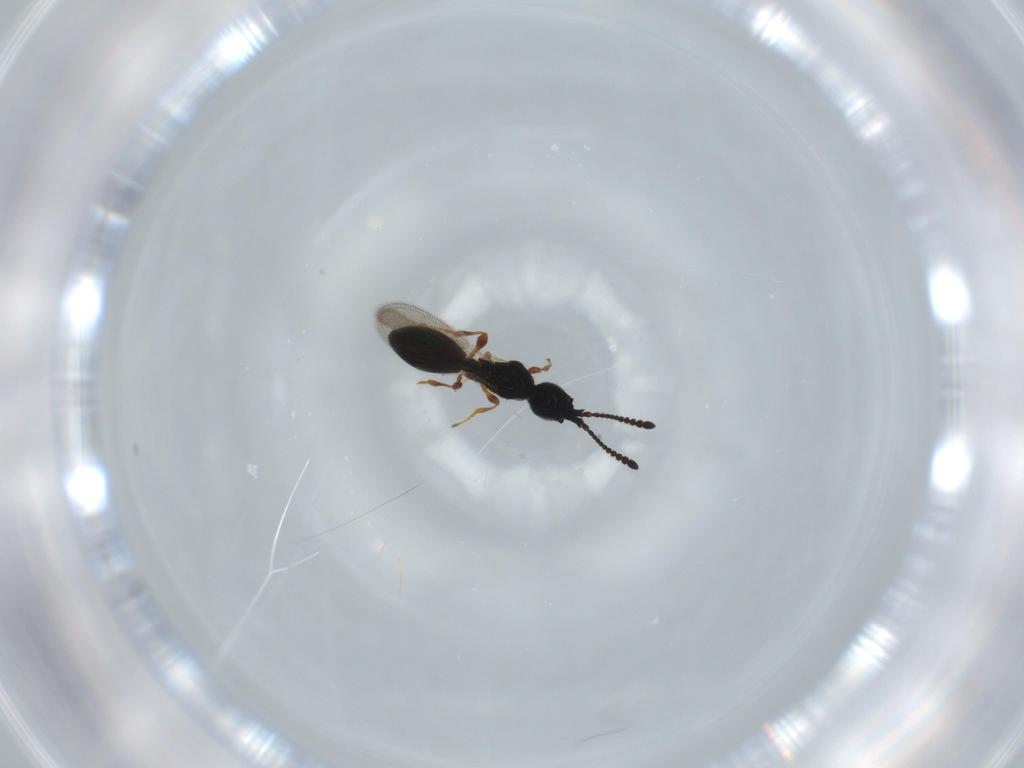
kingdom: Animalia
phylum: Arthropoda
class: Insecta
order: Hymenoptera
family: Diapriidae
